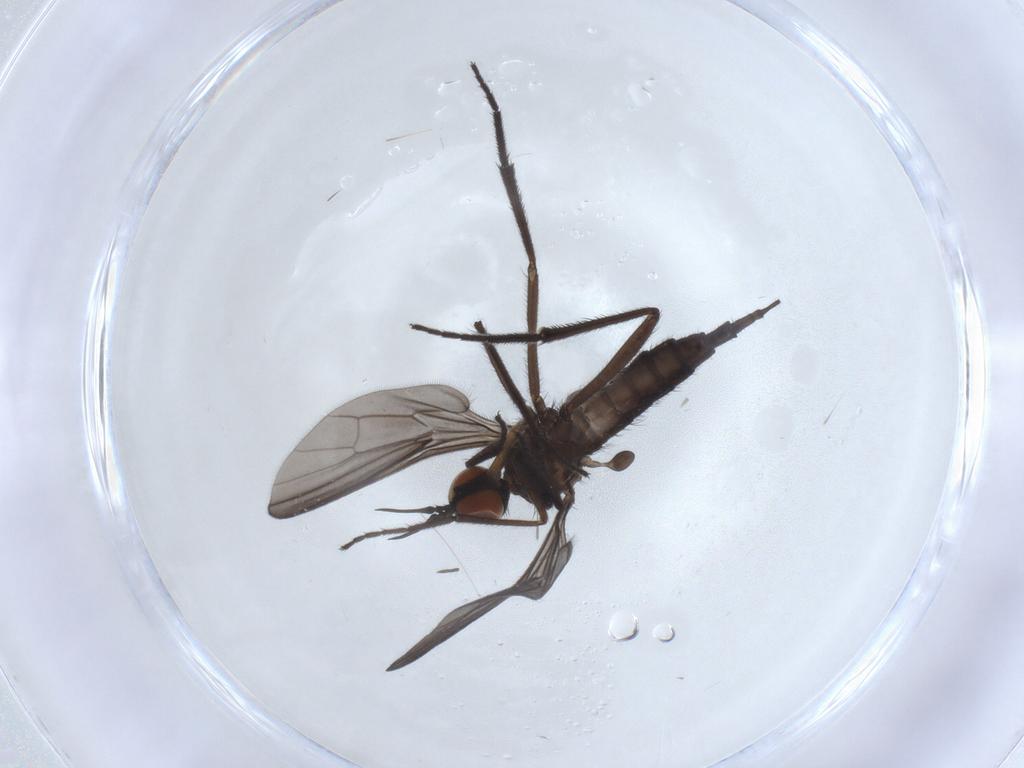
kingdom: Animalia
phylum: Arthropoda
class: Insecta
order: Diptera
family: Empididae
